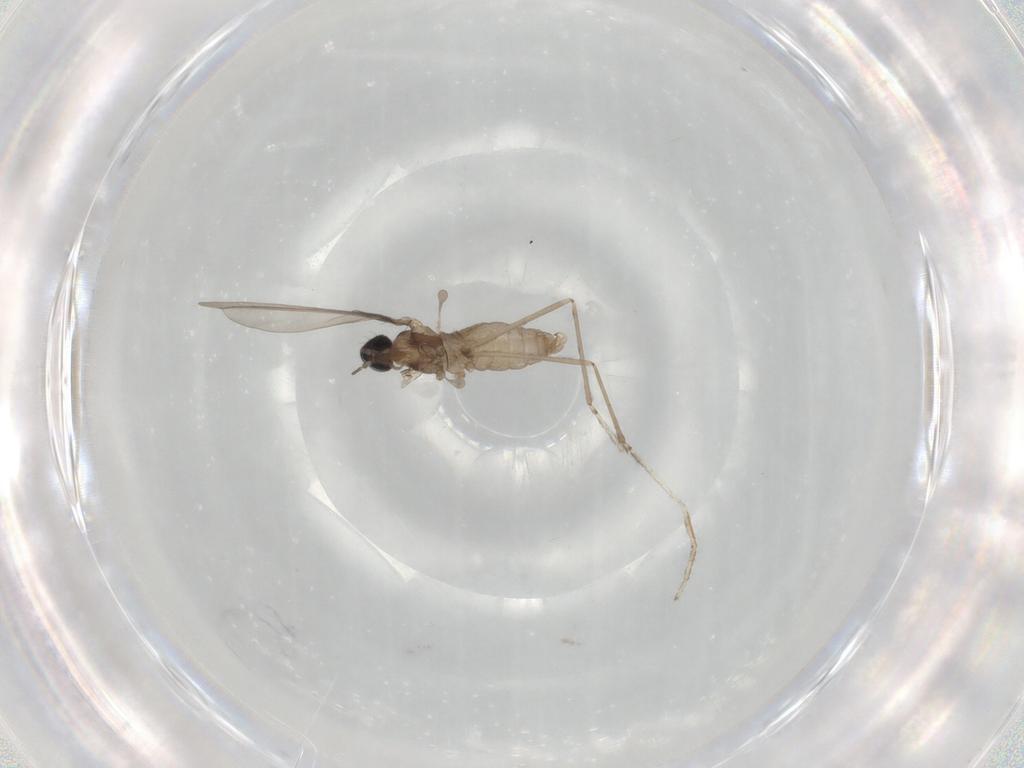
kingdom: Animalia
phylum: Arthropoda
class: Insecta
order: Diptera
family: Cecidomyiidae
